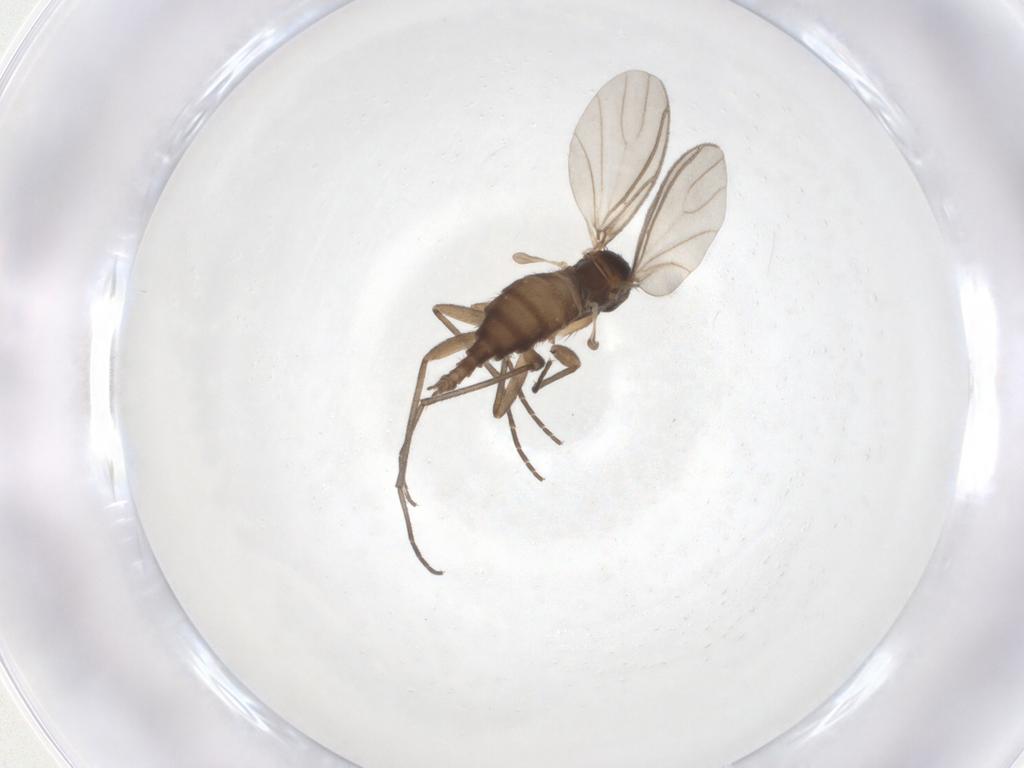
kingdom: Animalia
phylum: Arthropoda
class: Insecta
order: Diptera
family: Sciaridae
